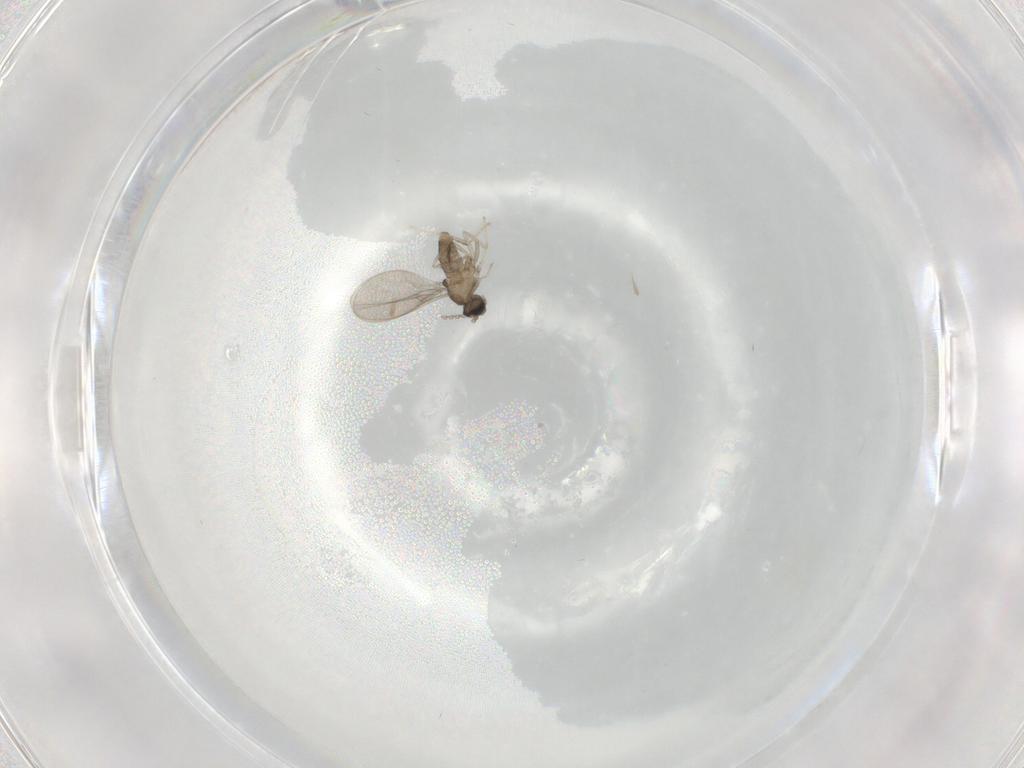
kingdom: Animalia
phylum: Arthropoda
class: Insecta
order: Diptera
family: Cecidomyiidae
